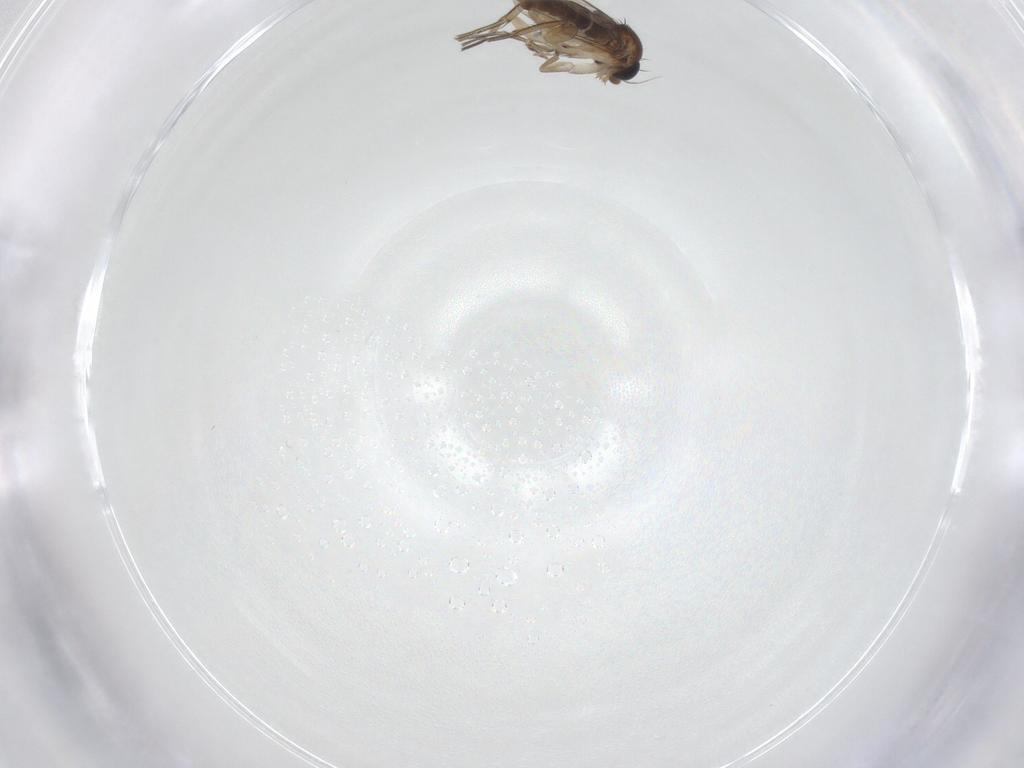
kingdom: Animalia
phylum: Arthropoda
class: Insecta
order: Diptera
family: Phoridae
